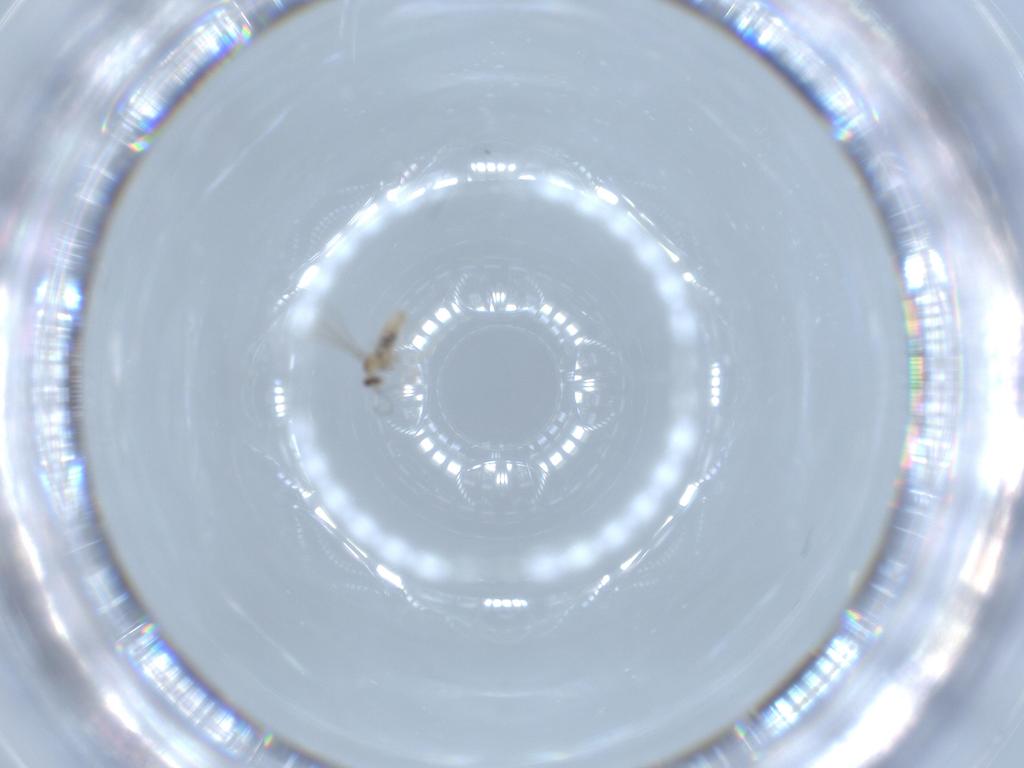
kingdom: Animalia
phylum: Arthropoda
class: Insecta
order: Diptera
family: Cecidomyiidae
